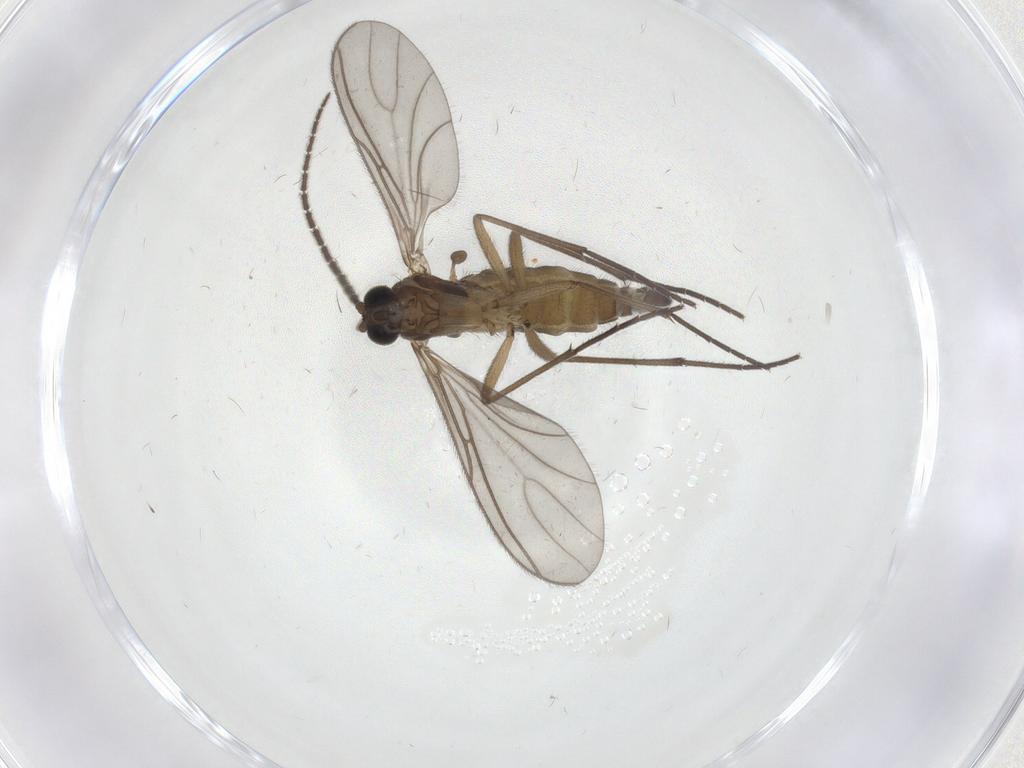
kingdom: Animalia
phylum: Arthropoda
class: Insecta
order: Diptera
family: Sciaridae
